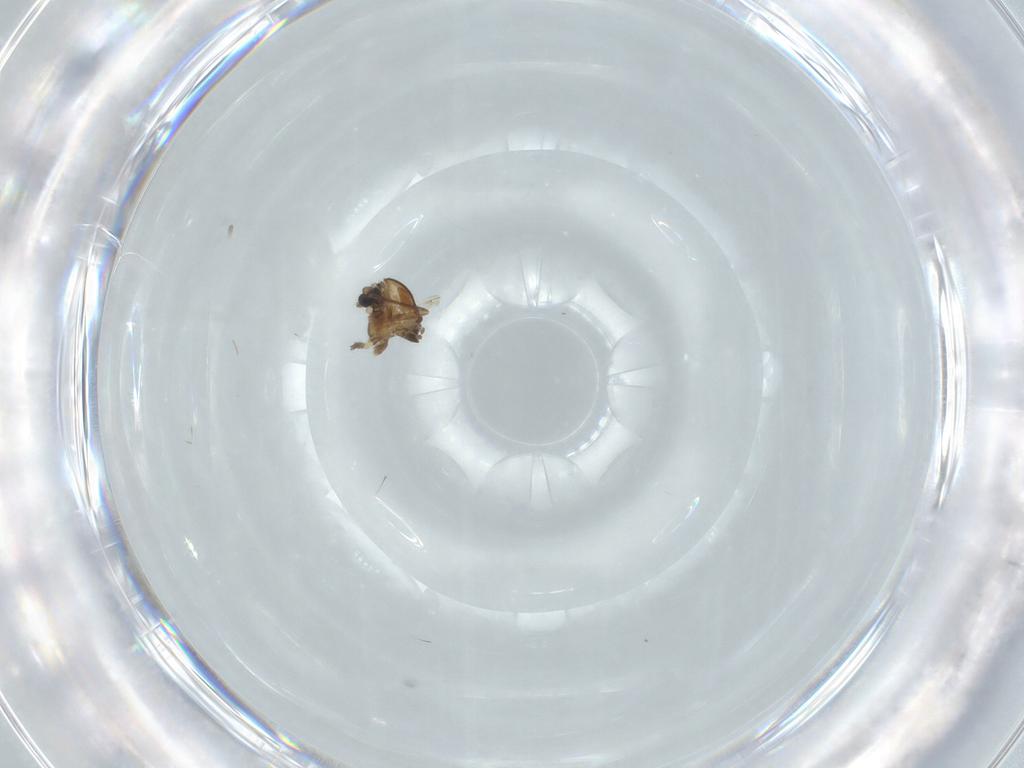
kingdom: Animalia
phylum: Arthropoda
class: Insecta
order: Diptera
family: Chironomidae
